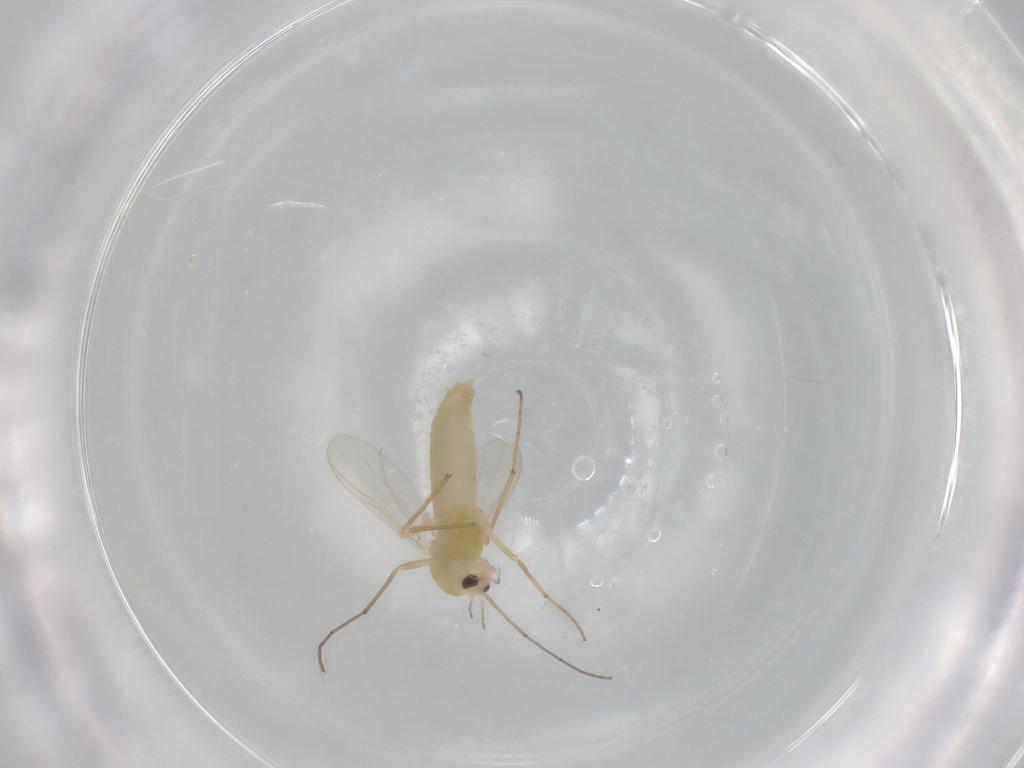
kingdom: Animalia
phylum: Arthropoda
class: Insecta
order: Diptera
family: Chironomidae
